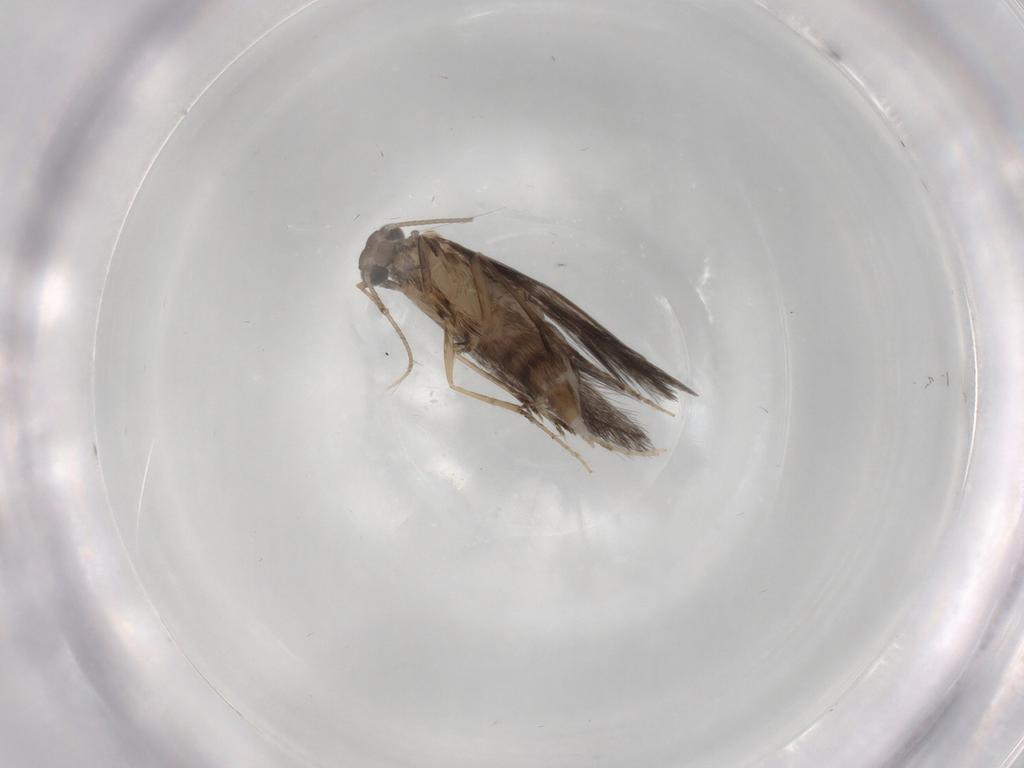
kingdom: Animalia
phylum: Arthropoda
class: Insecta
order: Trichoptera
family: Hydroptilidae
